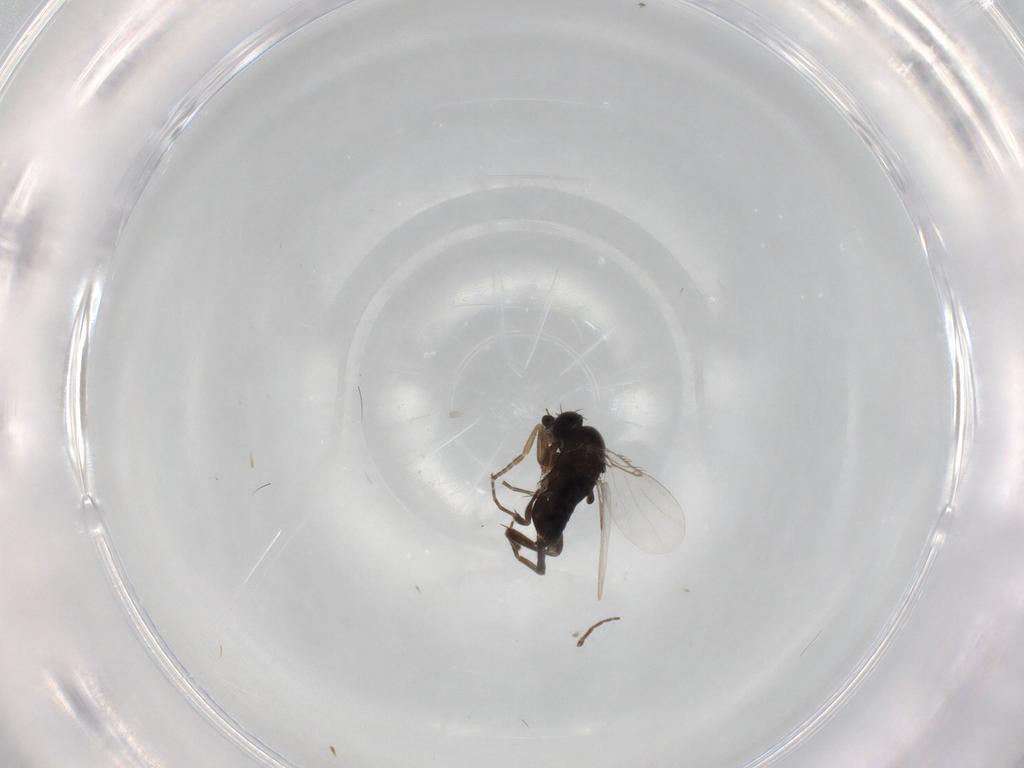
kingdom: Animalia
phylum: Arthropoda
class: Insecta
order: Diptera
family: Phoridae
